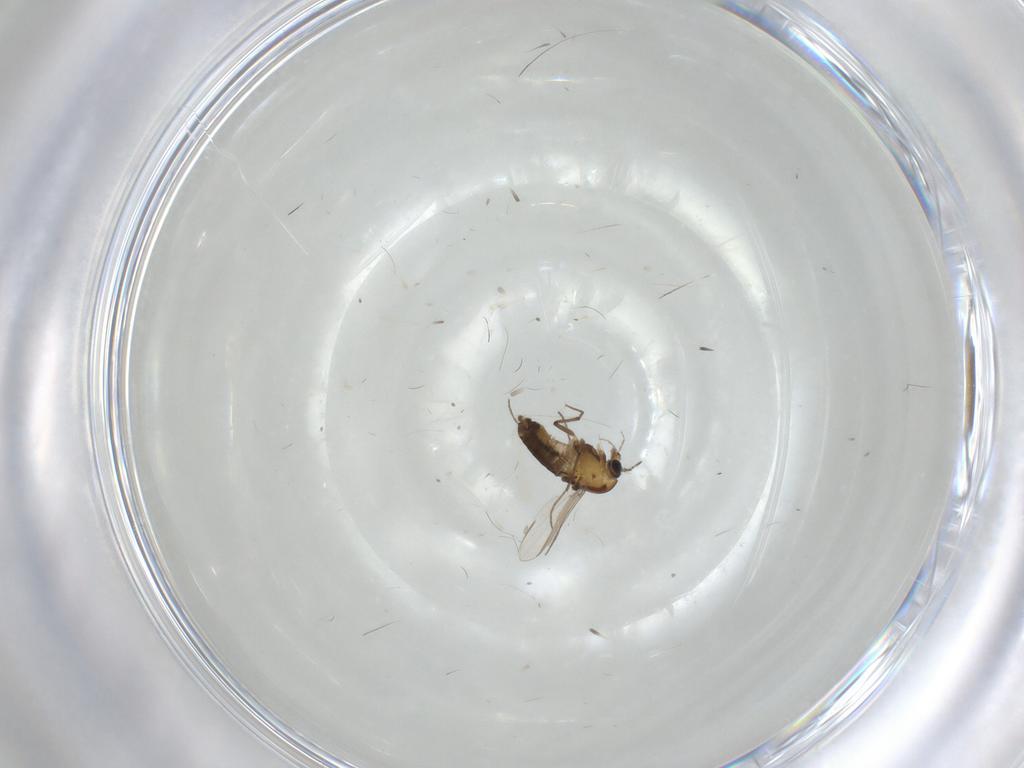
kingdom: Animalia
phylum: Arthropoda
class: Insecta
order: Diptera
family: Chironomidae
